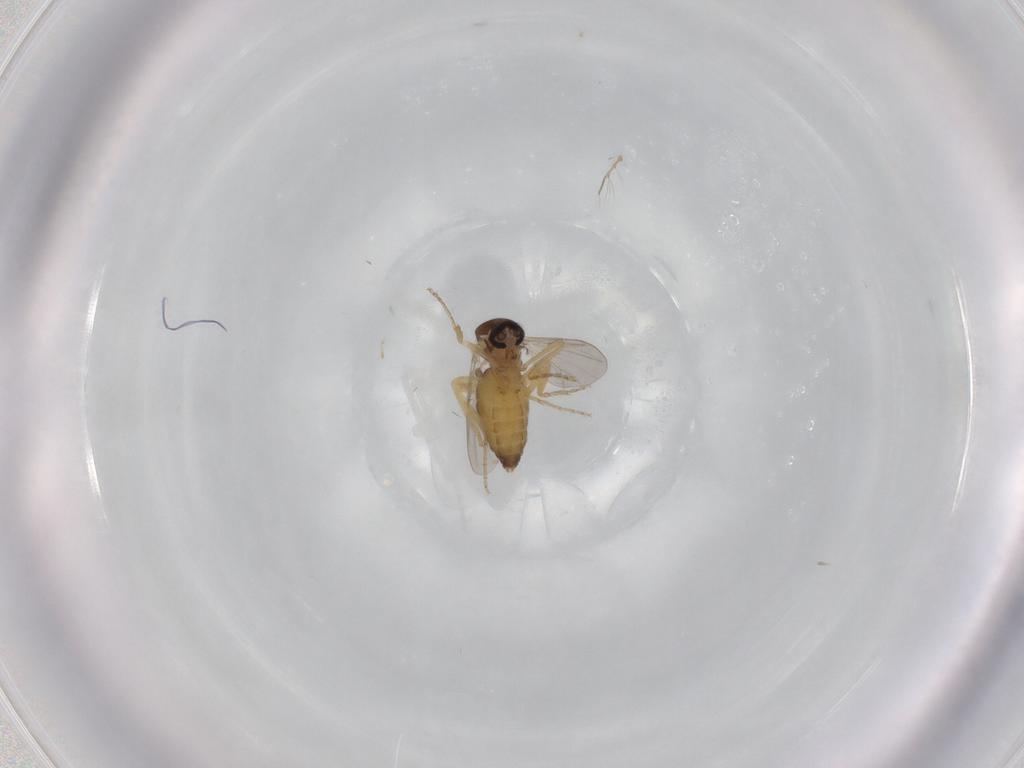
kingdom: Animalia
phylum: Arthropoda
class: Insecta
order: Diptera
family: Ceratopogonidae
